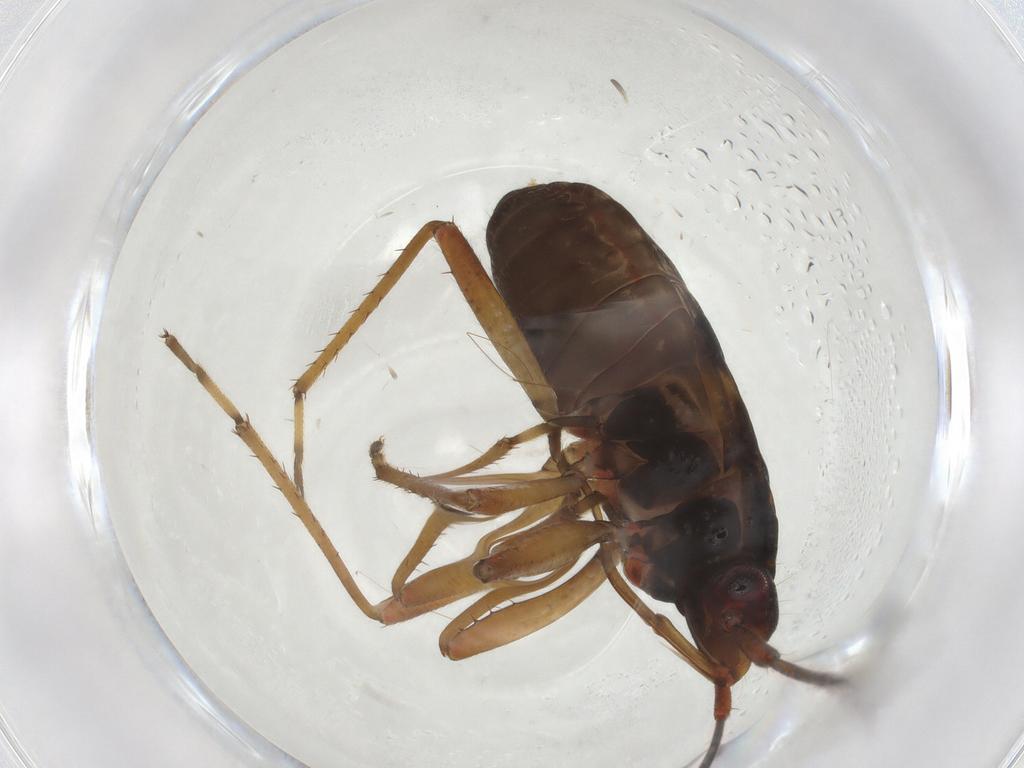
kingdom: Animalia
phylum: Arthropoda
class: Insecta
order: Hemiptera
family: Rhyparochromidae
